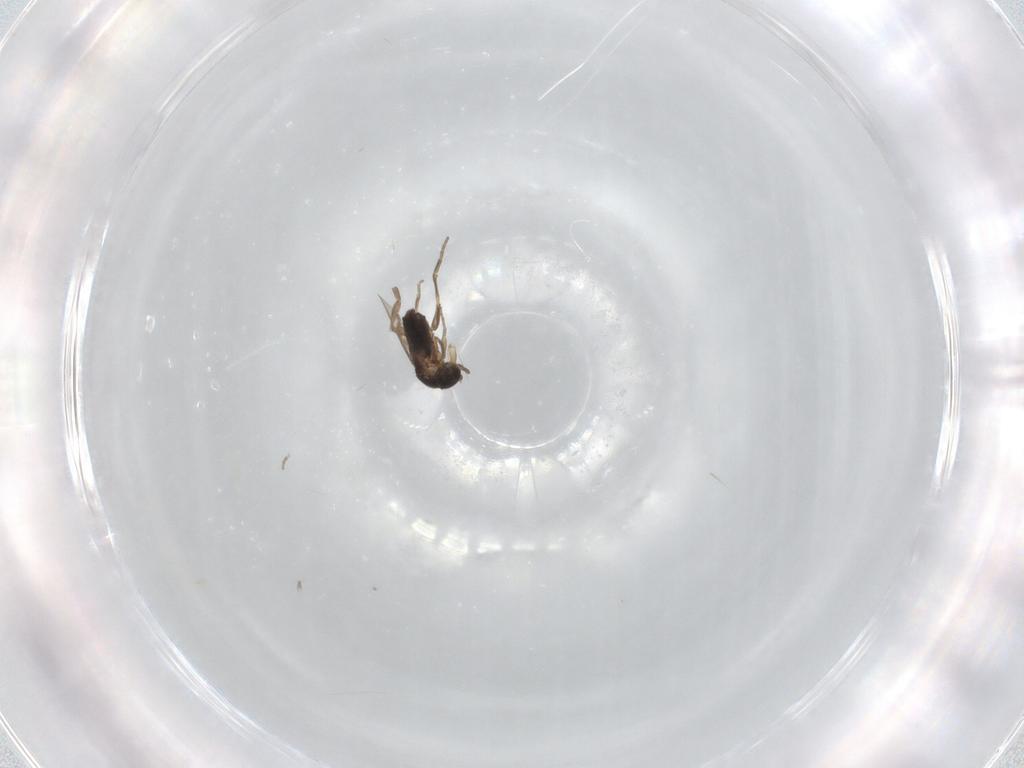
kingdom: Animalia
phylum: Arthropoda
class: Insecta
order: Diptera
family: Phoridae
